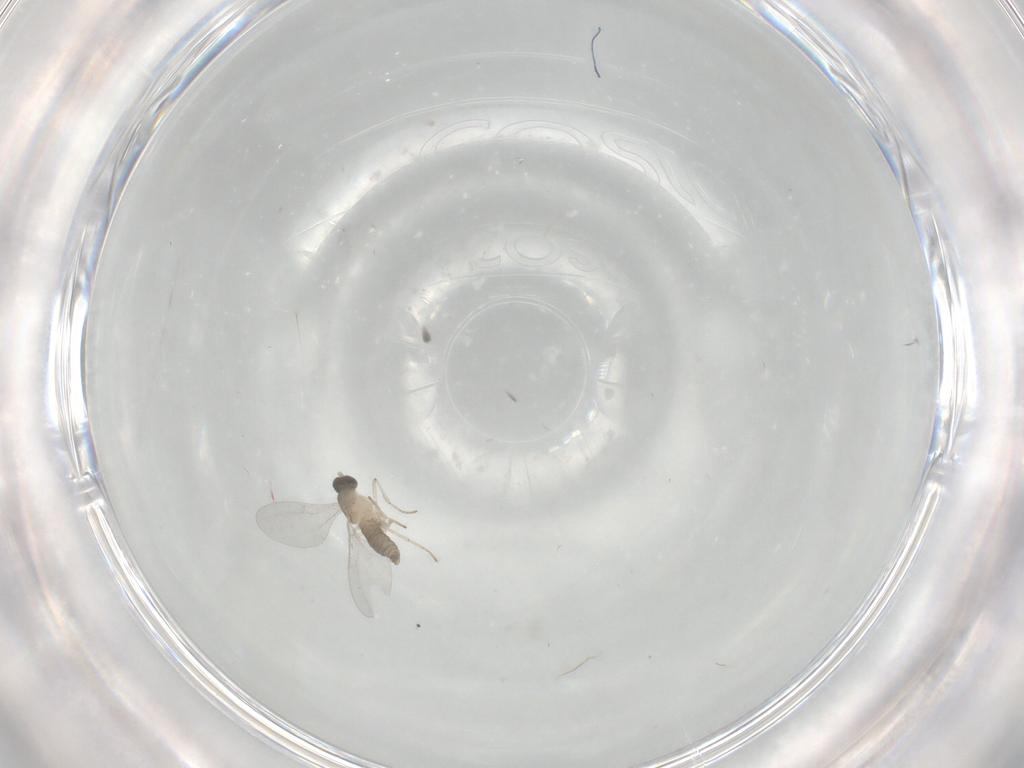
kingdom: Animalia
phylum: Arthropoda
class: Insecta
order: Diptera
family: Cecidomyiidae
